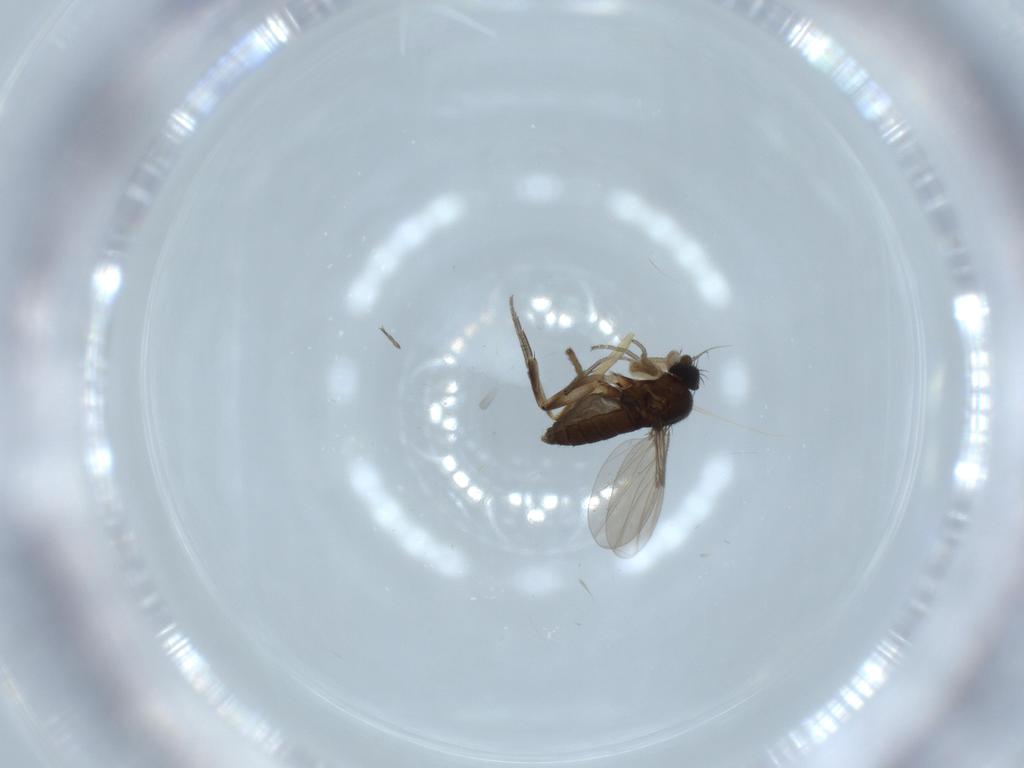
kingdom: Animalia
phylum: Arthropoda
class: Insecta
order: Diptera
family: Phoridae
